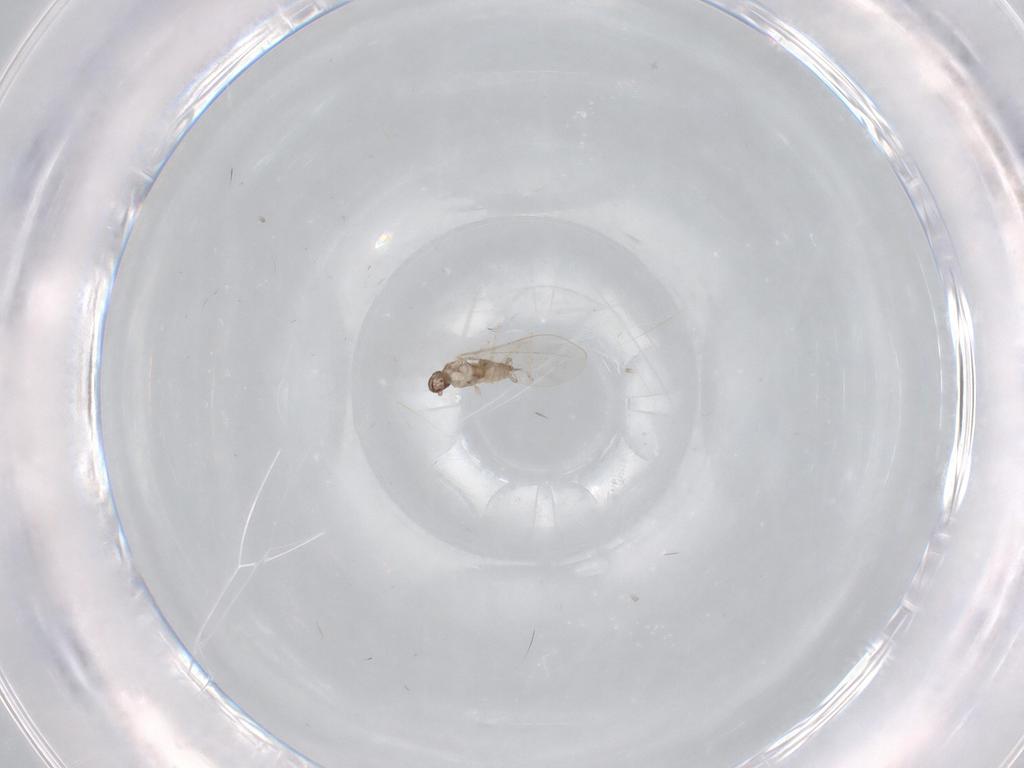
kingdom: Animalia
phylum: Arthropoda
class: Insecta
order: Diptera
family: Cecidomyiidae
